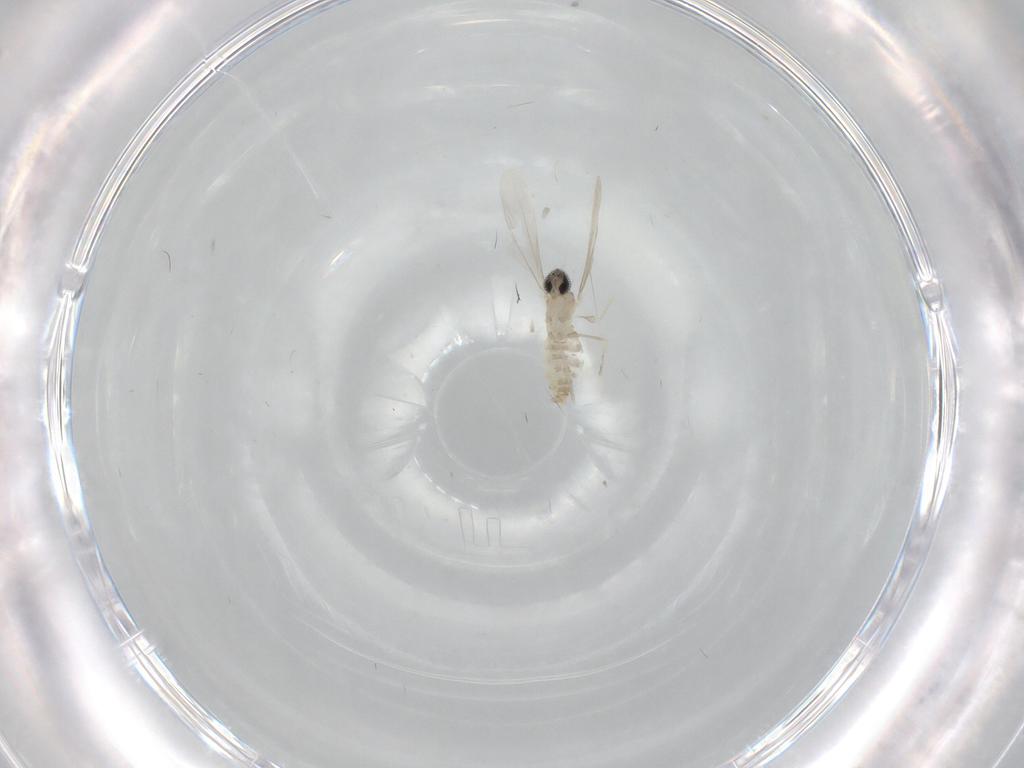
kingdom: Animalia
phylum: Arthropoda
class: Insecta
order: Diptera
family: Cecidomyiidae
